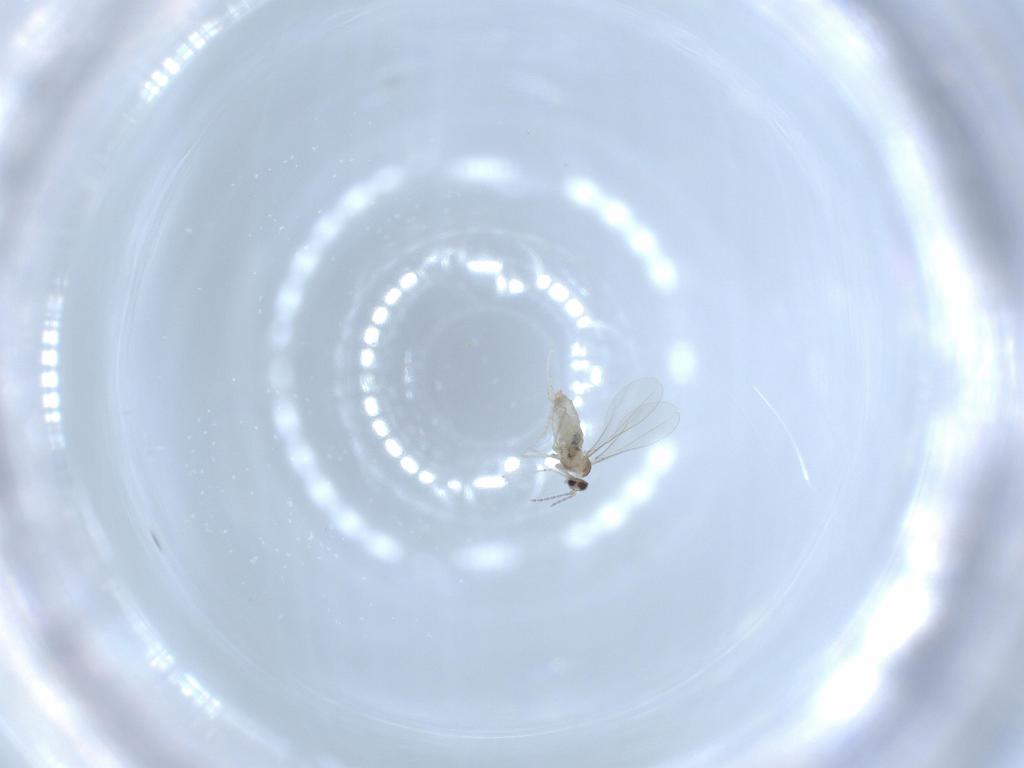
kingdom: Animalia
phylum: Arthropoda
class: Insecta
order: Diptera
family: Cecidomyiidae
